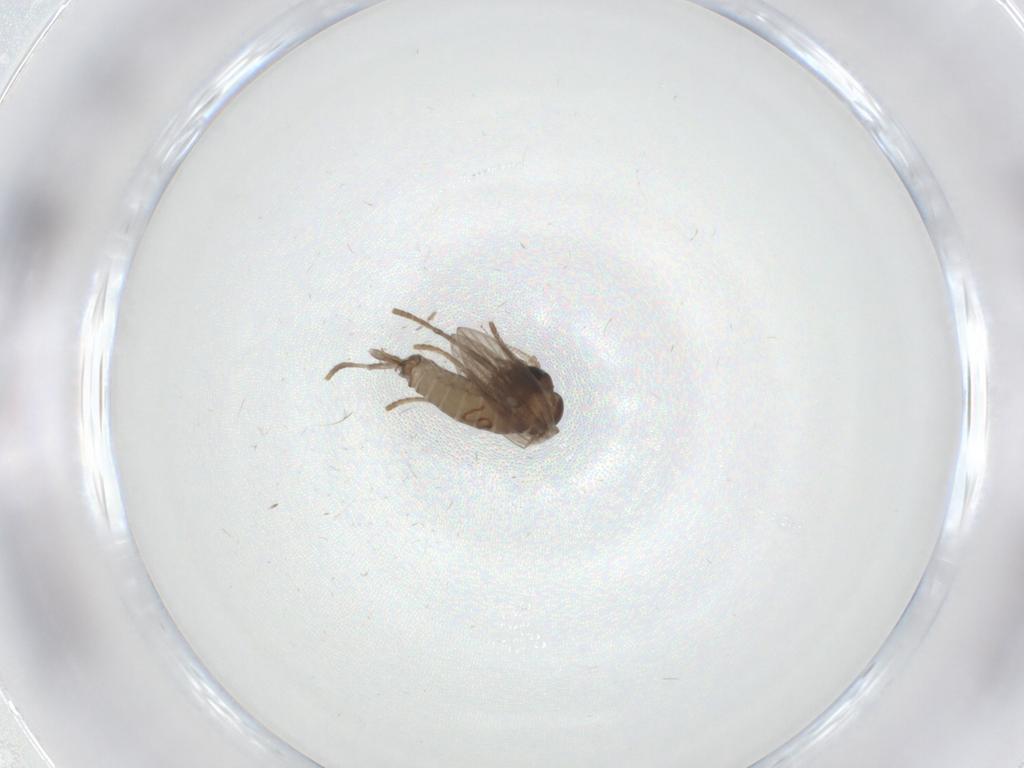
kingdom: Animalia
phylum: Arthropoda
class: Insecta
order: Diptera
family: Psychodidae
